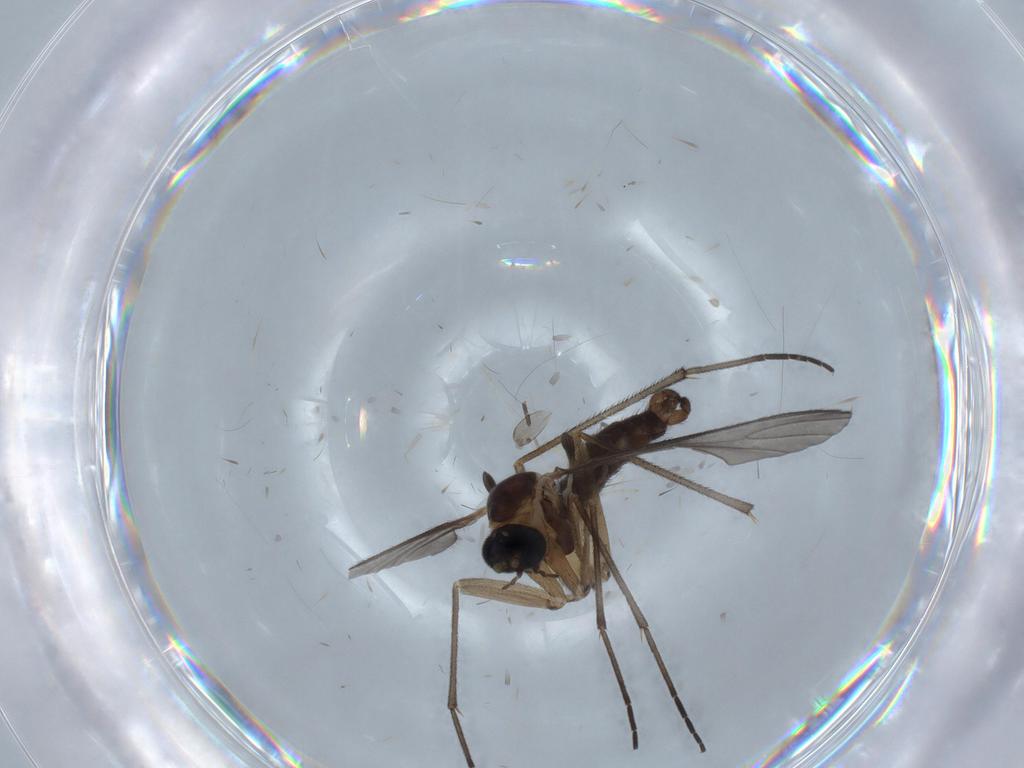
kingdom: Animalia
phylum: Arthropoda
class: Insecta
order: Diptera
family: Sciaridae
